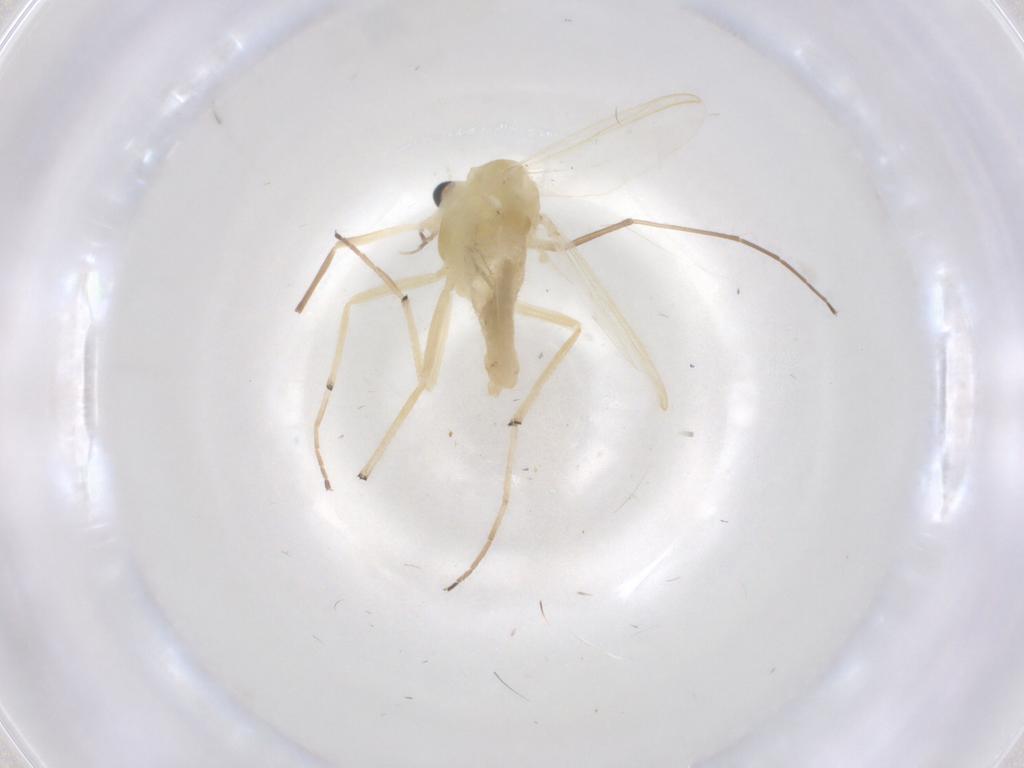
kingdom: Animalia
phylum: Arthropoda
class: Insecta
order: Diptera
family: Chironomidae
